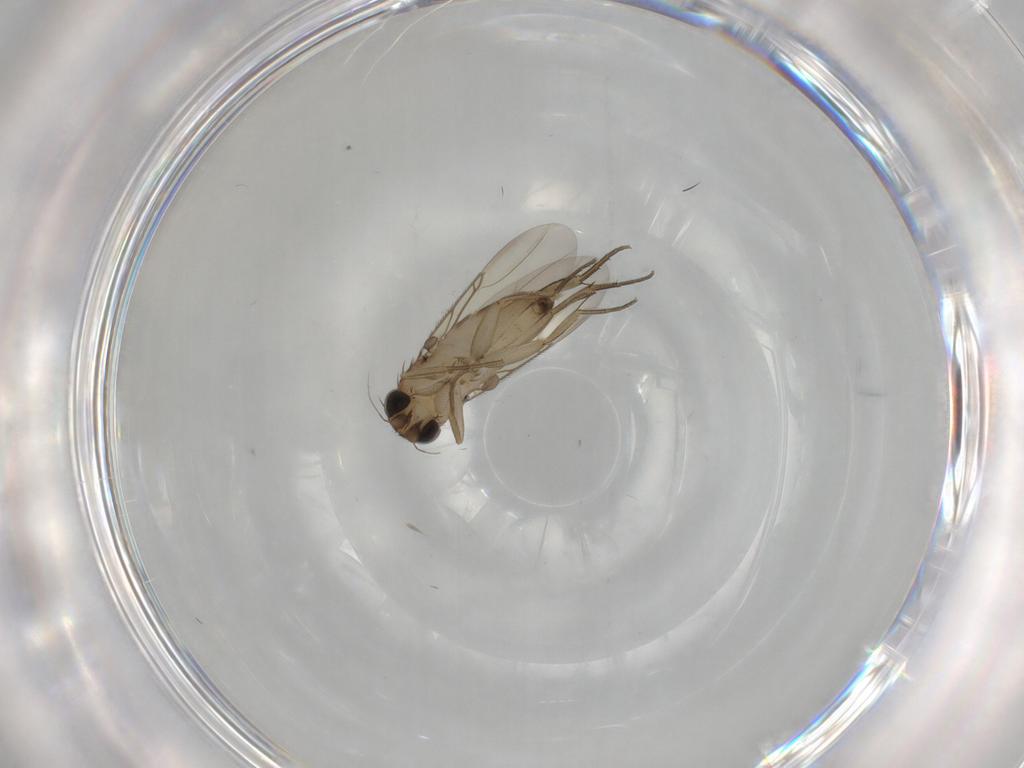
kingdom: Animalia
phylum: Arthropoda
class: Insecta
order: Diptera
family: Phoridae
